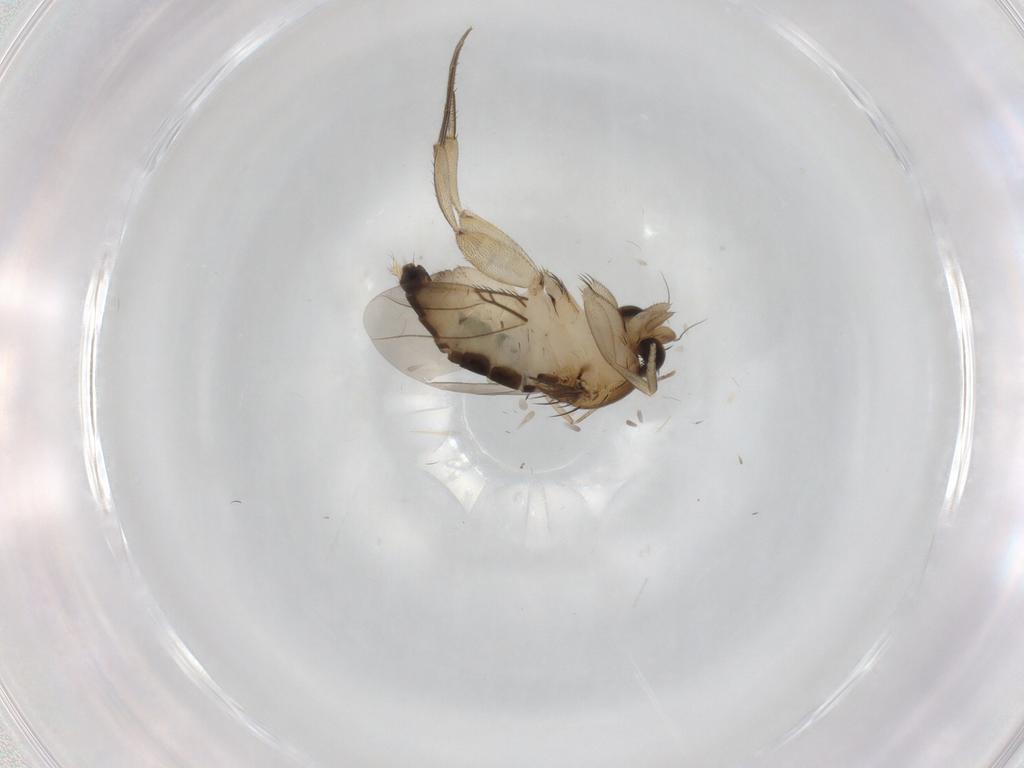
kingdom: Animalia
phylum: Arthropoda
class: Insecta
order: Diptera
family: Phoridae
